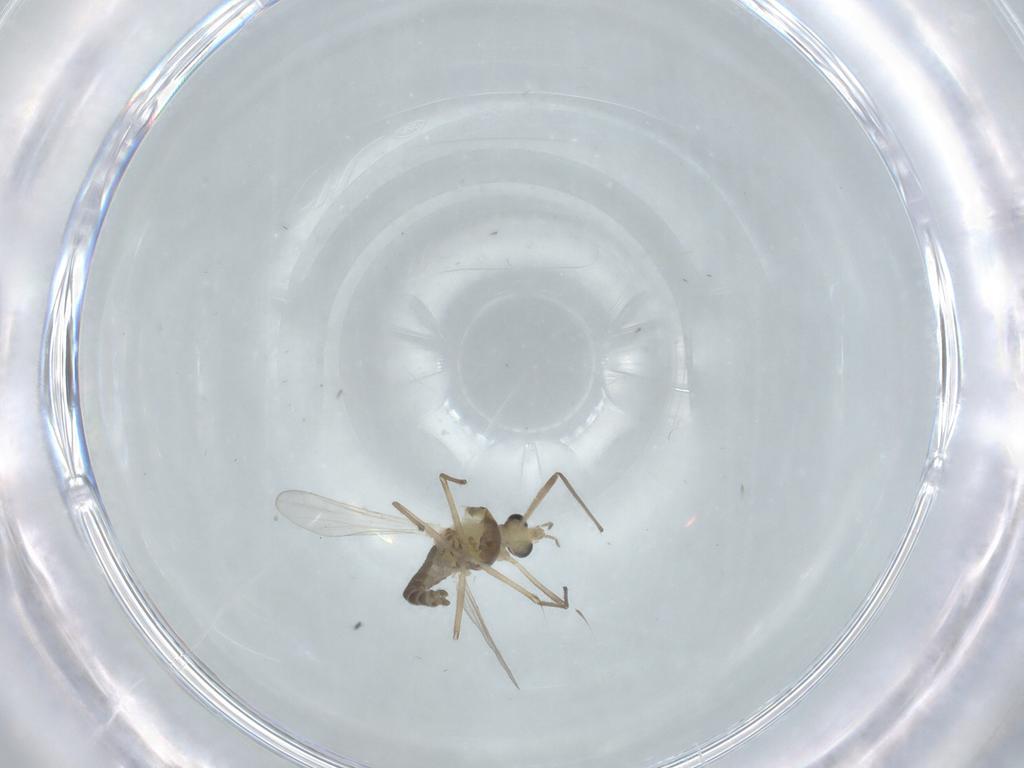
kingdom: Animalia
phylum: Arthropoda
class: Insecta
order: Diptera
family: Chironomidae
